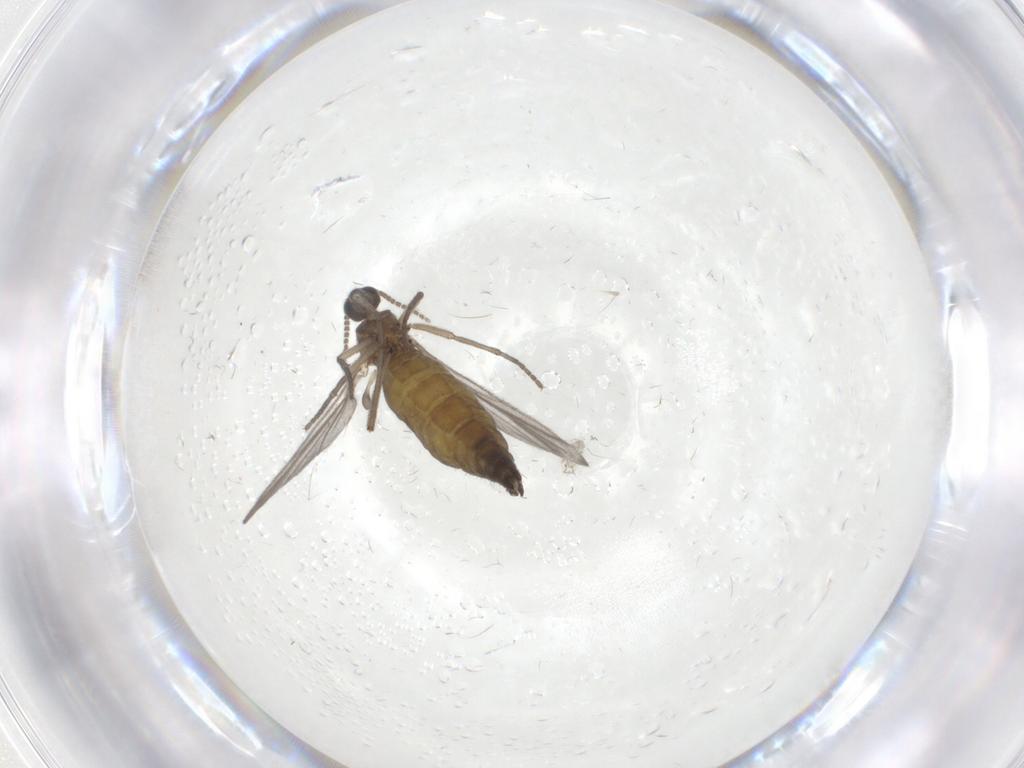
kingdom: Animalia
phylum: Arthropoda
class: Insecta
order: Diptera
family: Sciaridae
